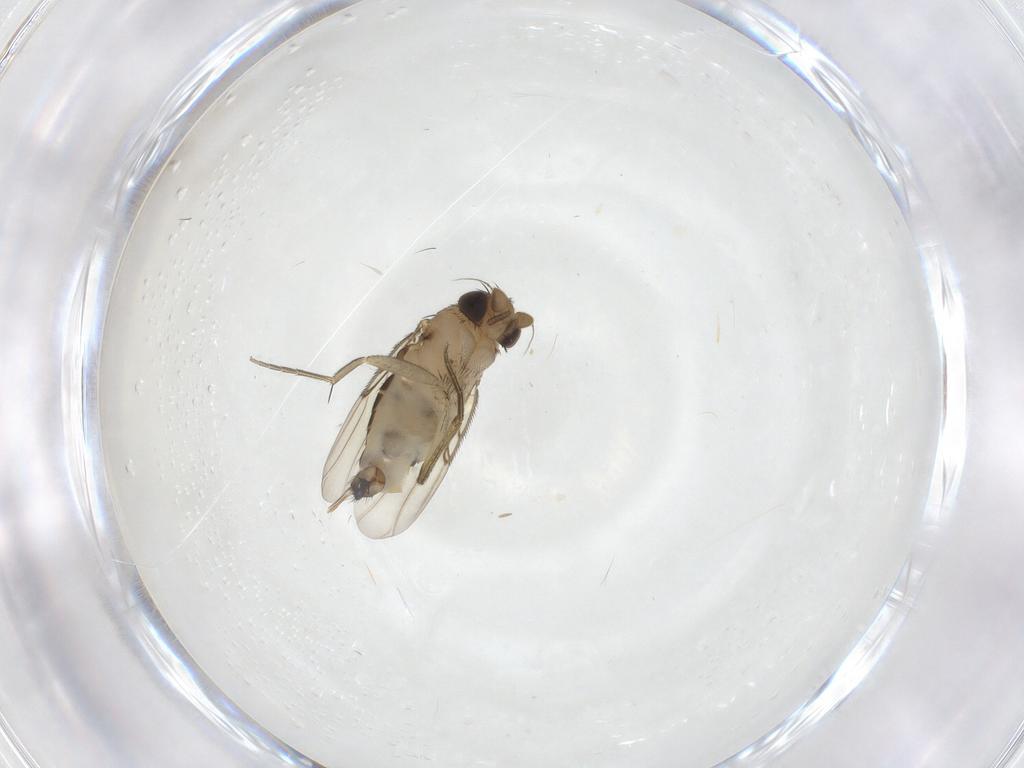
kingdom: Animalia
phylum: Arthropoda
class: Insecta
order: Diptera
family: Phoridae
